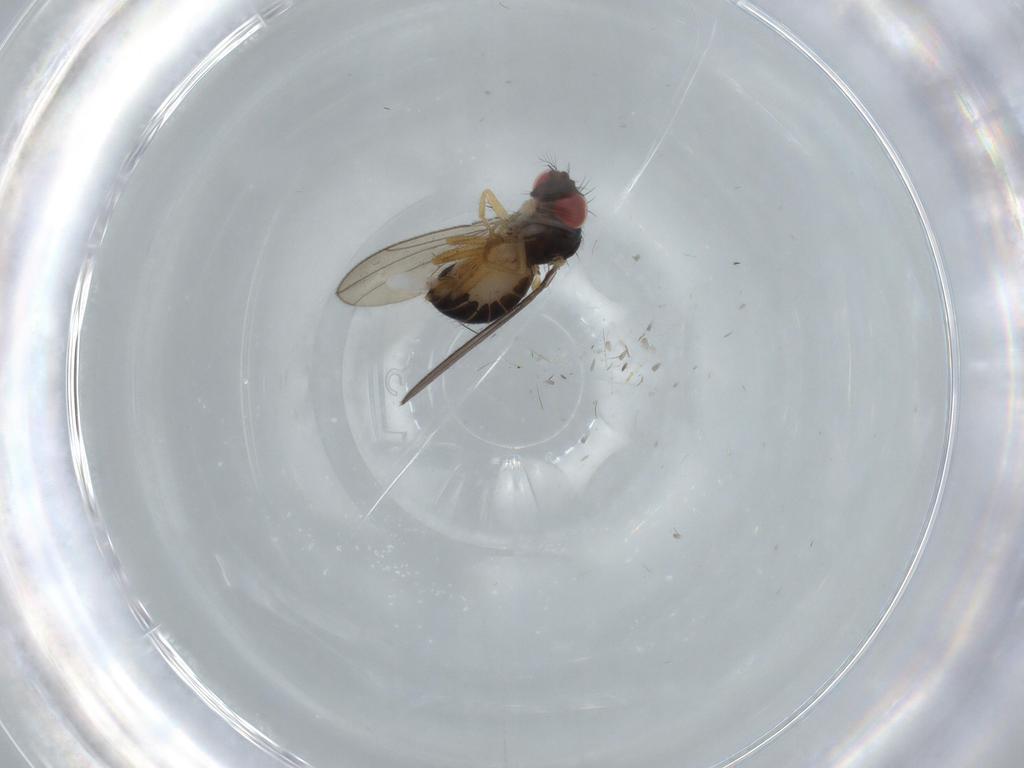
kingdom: Animalia
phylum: Arthropoda
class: Insecta
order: Diptera
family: Drosophilidae
